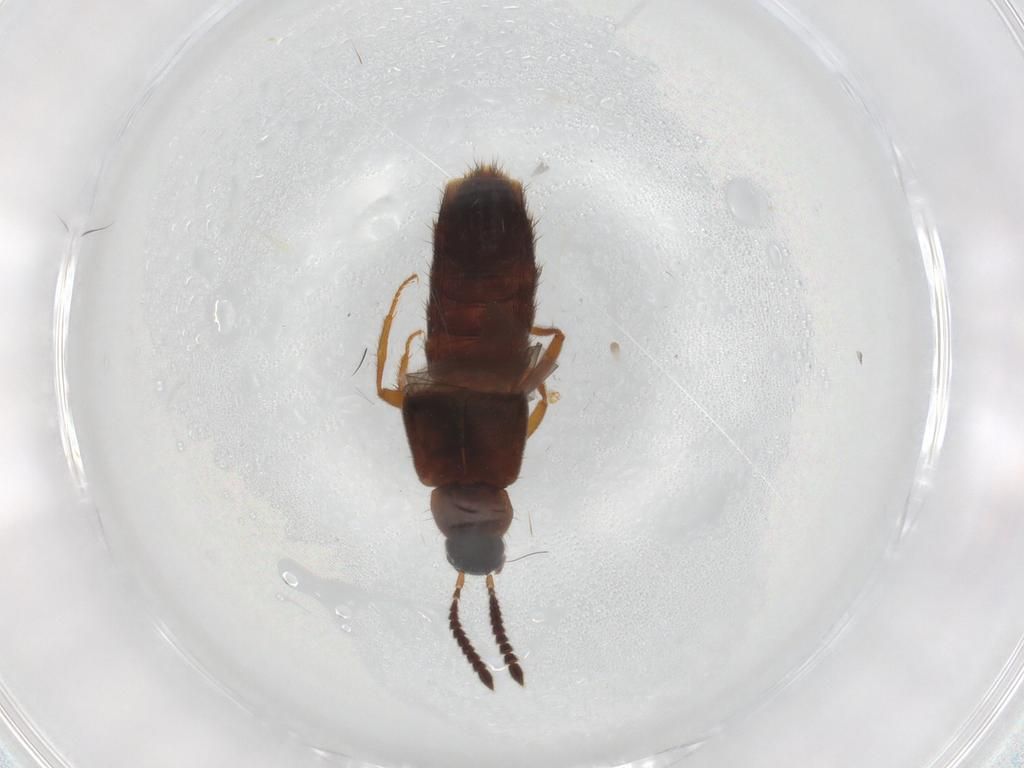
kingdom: Animalia
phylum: Arthropoda
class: Insecta
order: Coleoptera
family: Staphylinidae
